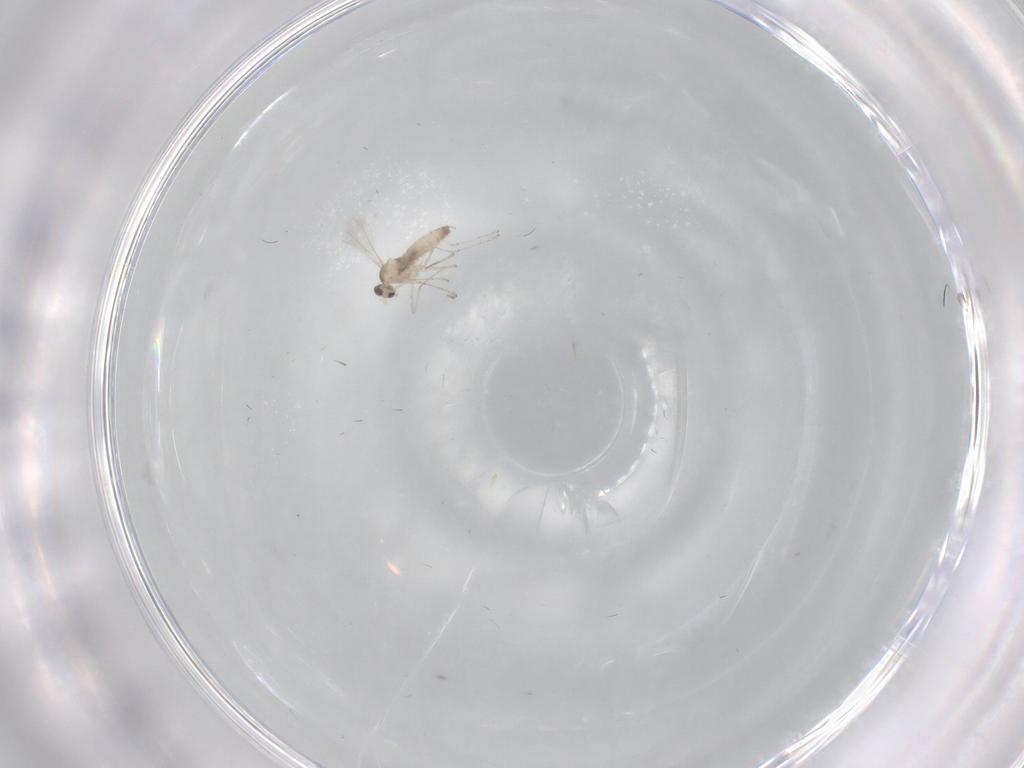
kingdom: Animalia
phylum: Arthropoda
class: Insecta
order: Diptera
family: Cecidomyiidae
